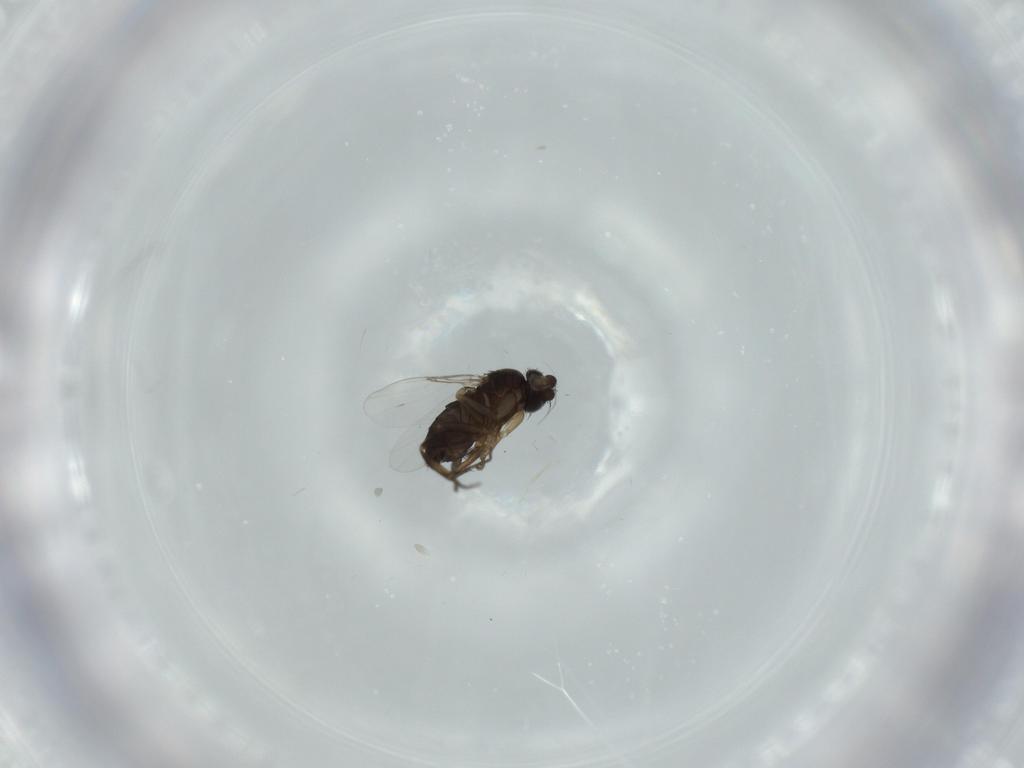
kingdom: Animalia
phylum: Arthropoda
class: Insecta
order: Diptera
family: Phoridae
